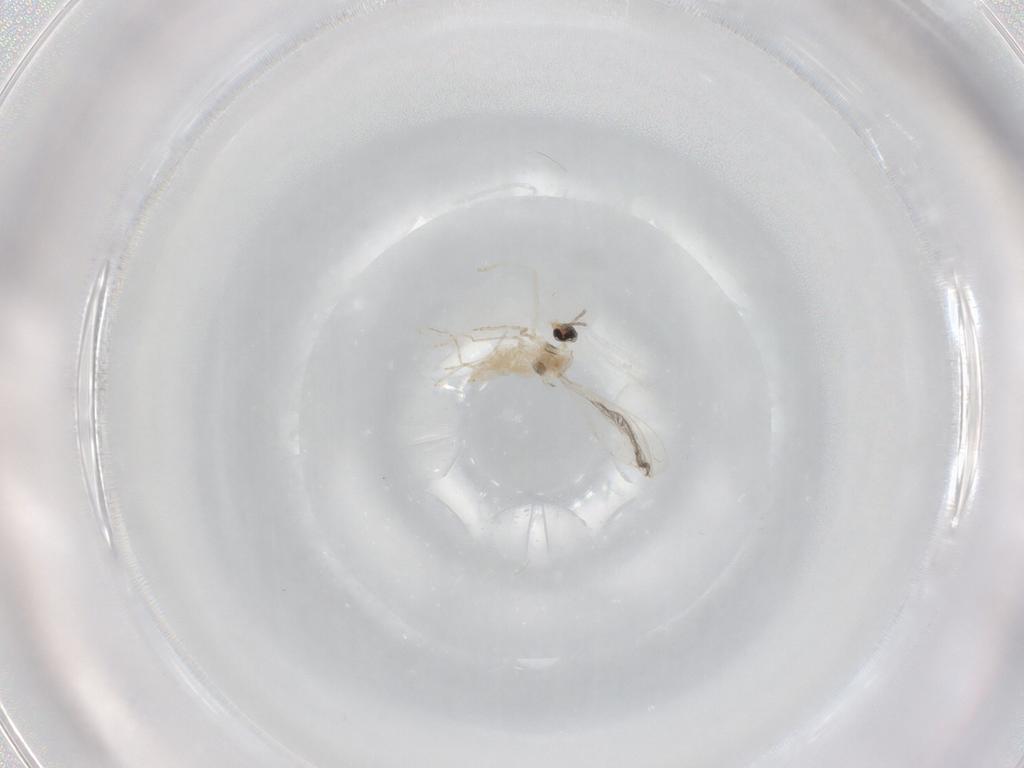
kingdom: Animalia
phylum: Arthropoda
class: Insecta
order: Diptera
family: Cecidomyiidae
